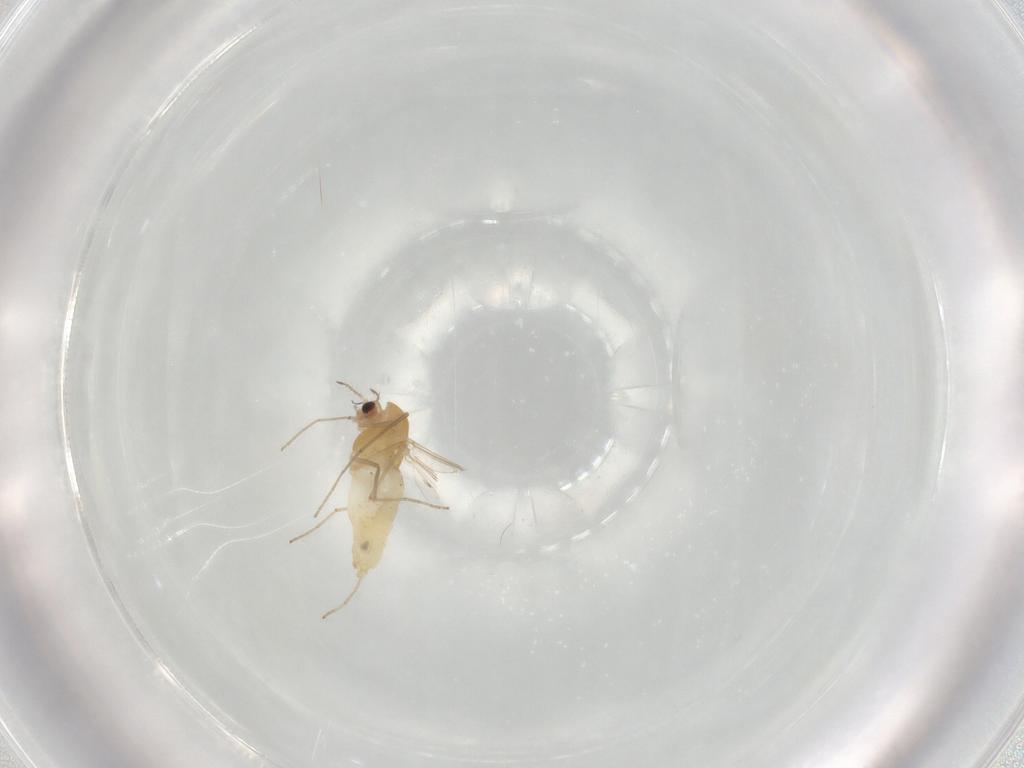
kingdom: Animalia
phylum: Arthropoda
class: Insecta
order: Diptera
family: Chironomidae
